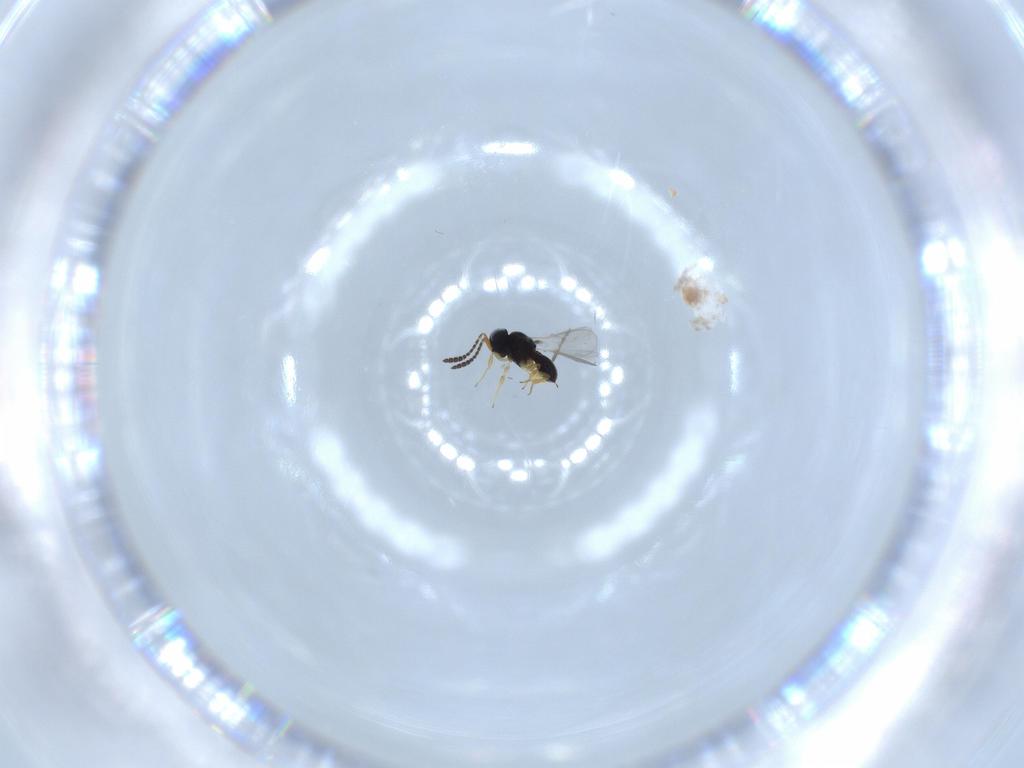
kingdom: Animalia
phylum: Arthropoda
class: Insecta
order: Hymenoptera
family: Scelionidae
